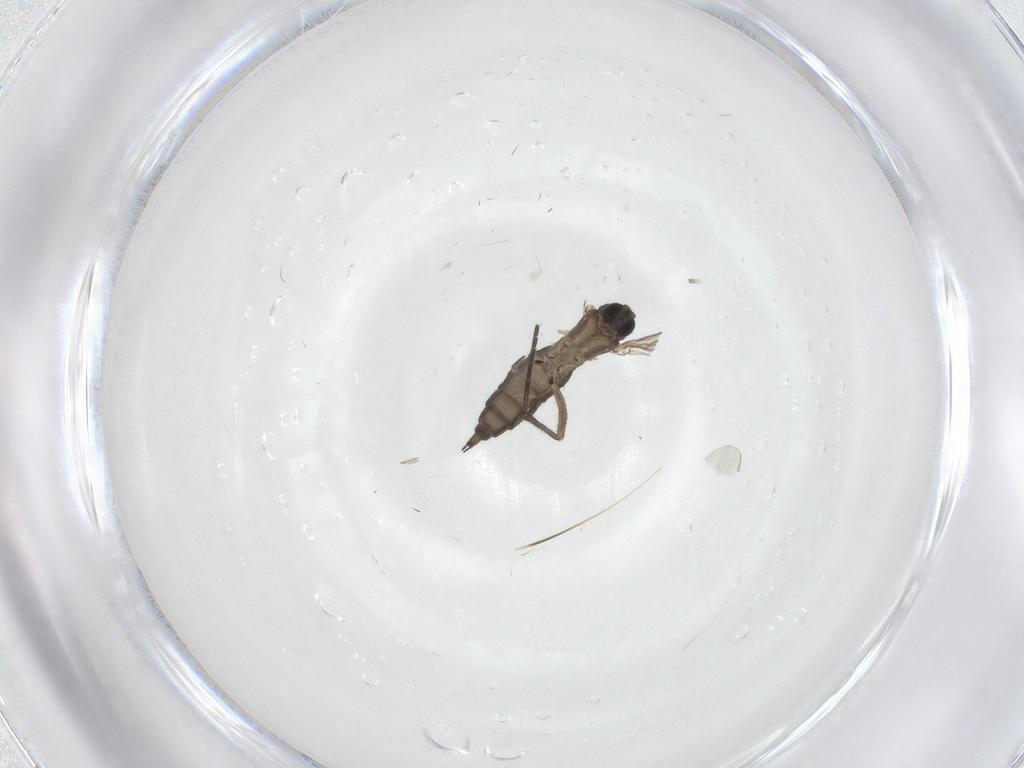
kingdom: Animalia
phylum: Arthropoda
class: Insecta
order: Diptera
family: Sciaridae
